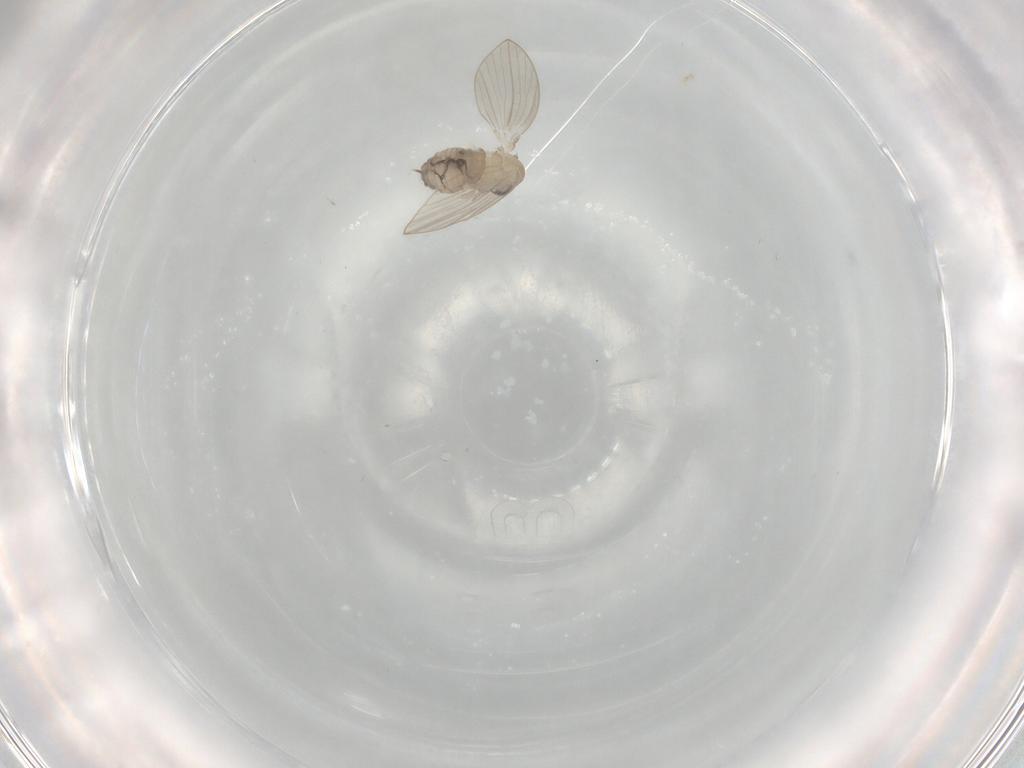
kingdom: Animalia
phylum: Arthropoda
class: Insecta
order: Diptera
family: Psychodidae
